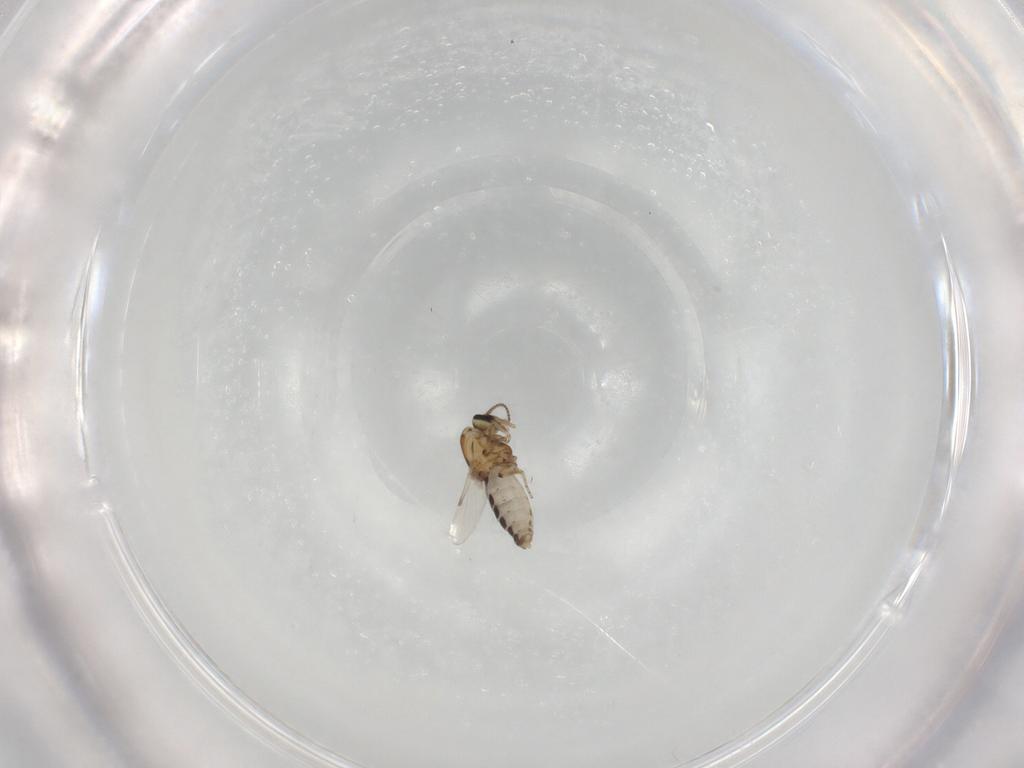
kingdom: Animalia
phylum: Arthropoda
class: Insecta
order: Diptera
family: Ceratopogonidae
